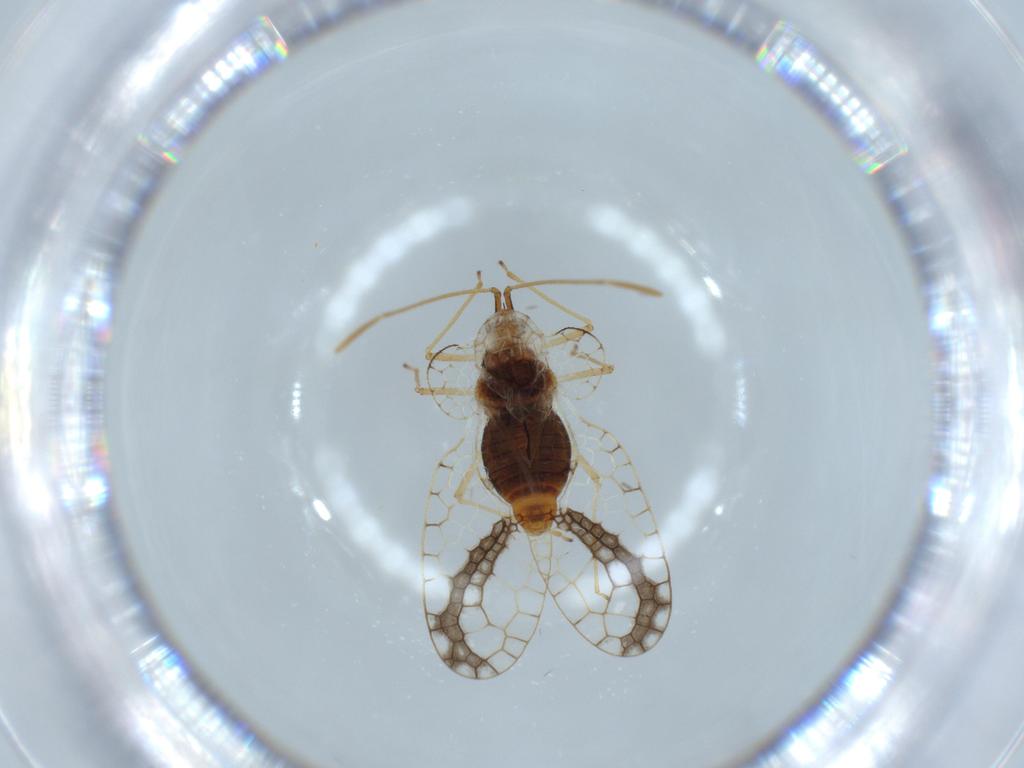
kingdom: Animalia
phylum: Arthropoda
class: Insecta
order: Hemiptera
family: Tingidae
